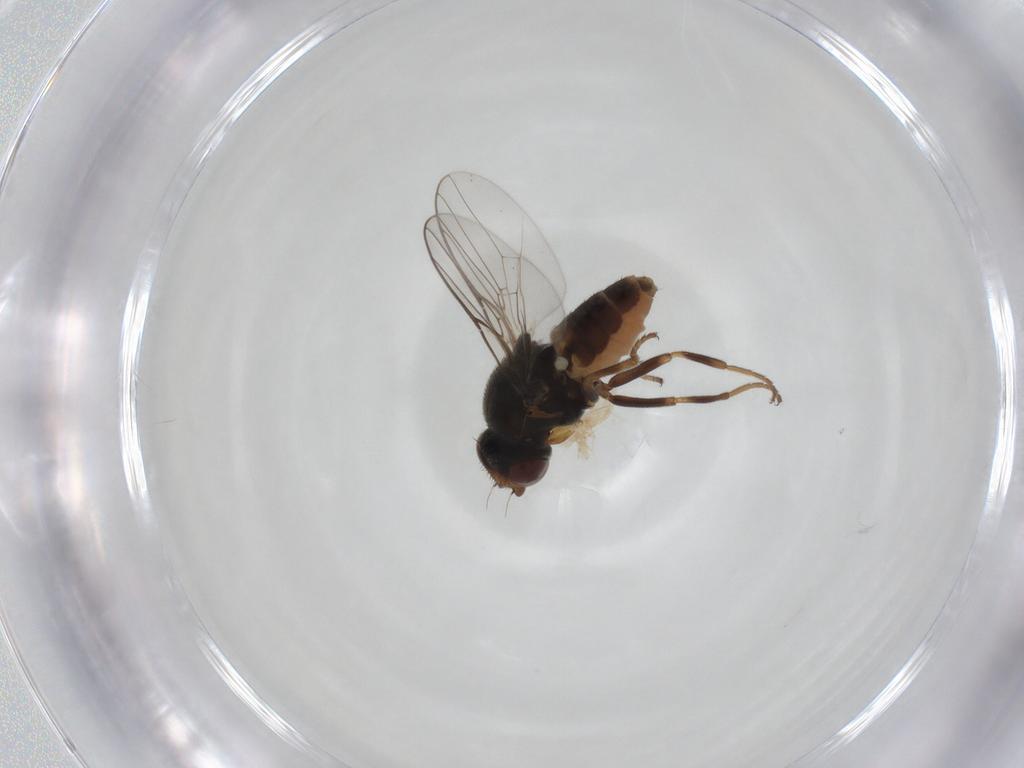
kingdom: Animalia
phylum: Arthropoda
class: Insecta
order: Diptera
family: Chloropidae
